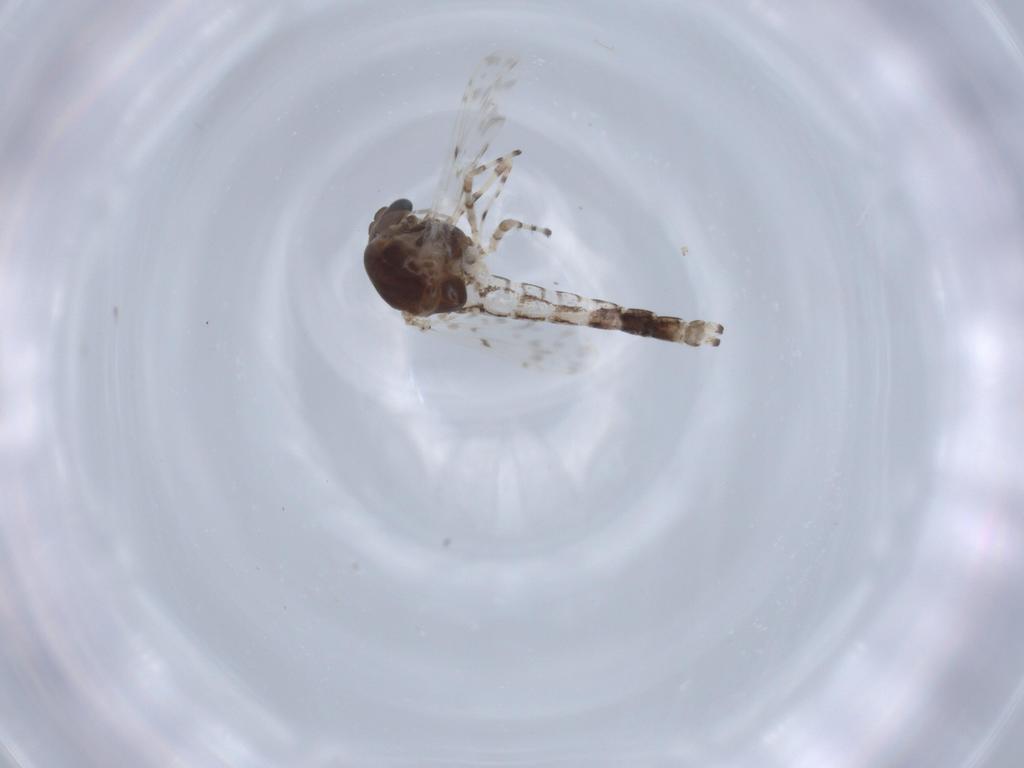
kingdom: Animalia
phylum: Arthropoda
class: Insecta
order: Diptera
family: Chironomidae
